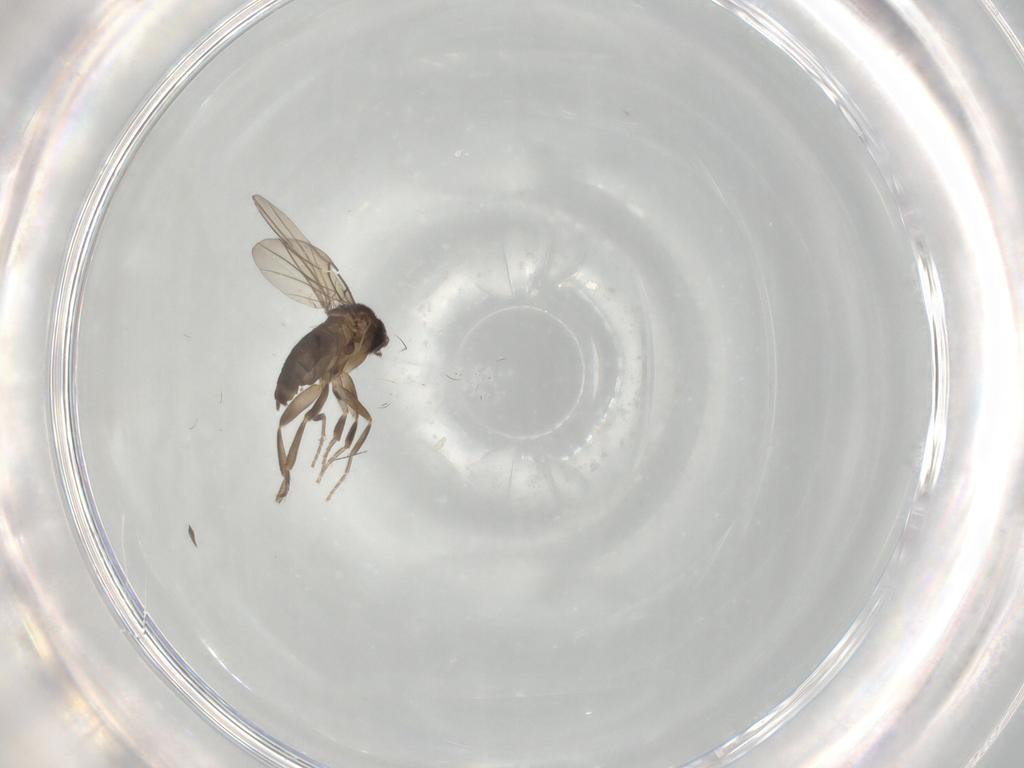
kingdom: Animalia
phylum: Arthropoda
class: Insecta
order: Diptera
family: Phoridae
